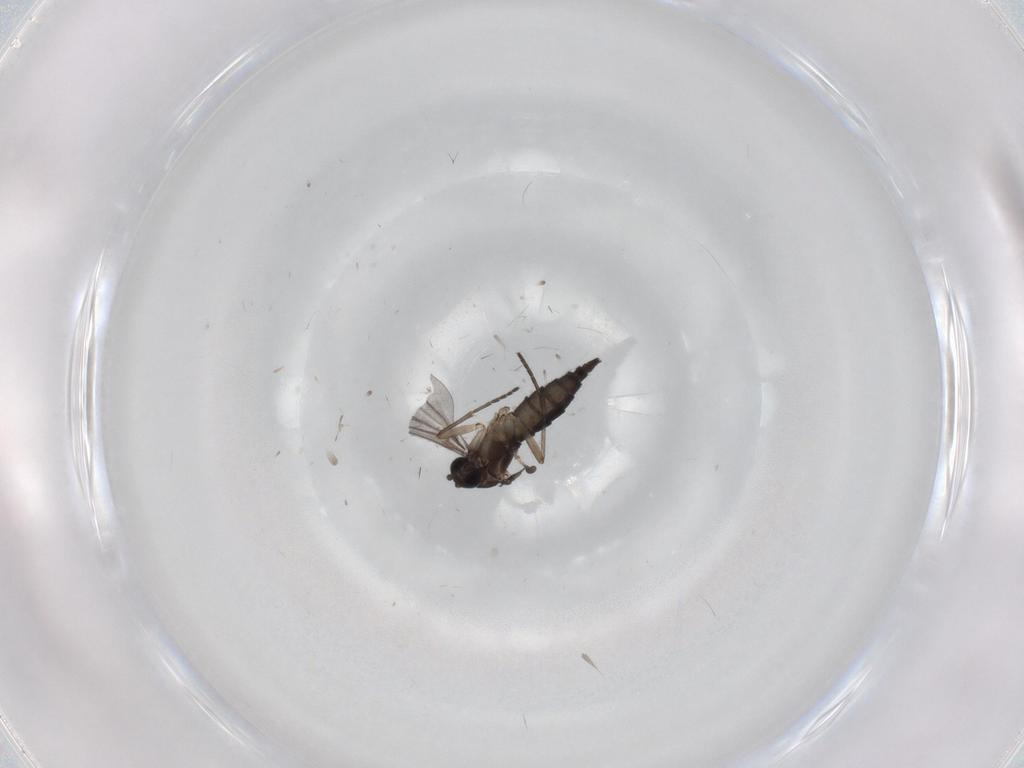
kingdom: Animalia
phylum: Arthropoda
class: Insecta
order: Diptera
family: Sciaridae
